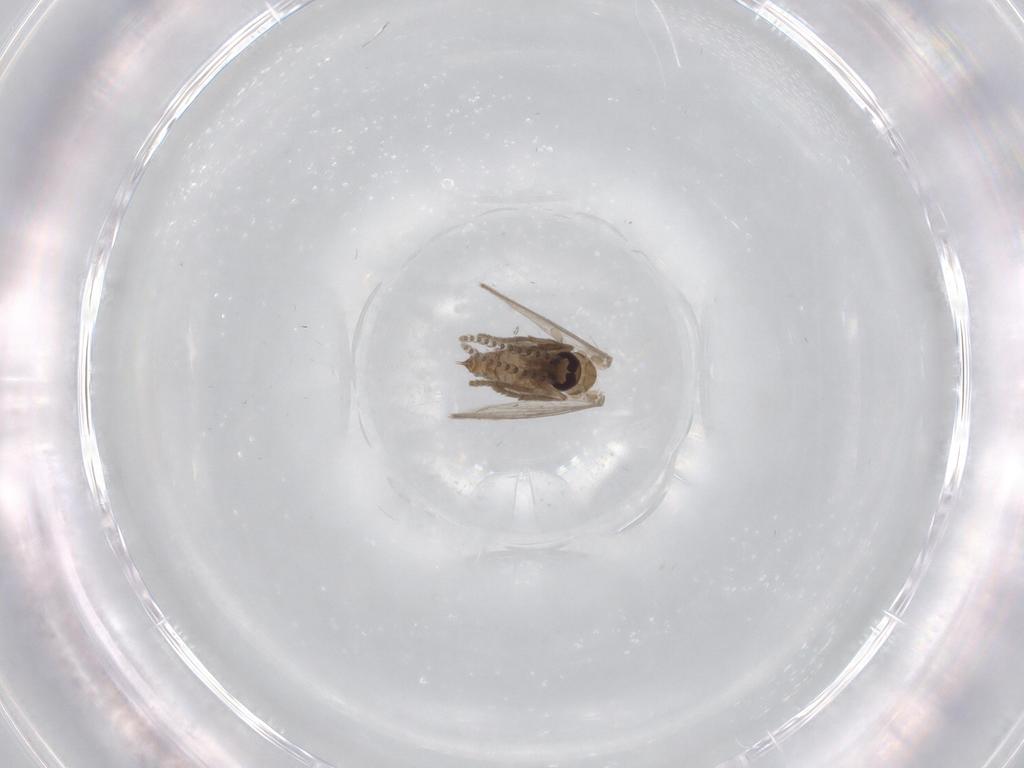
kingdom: Animalia
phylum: Arthropoda
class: Insecta
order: Diptera
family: Psychodidae
